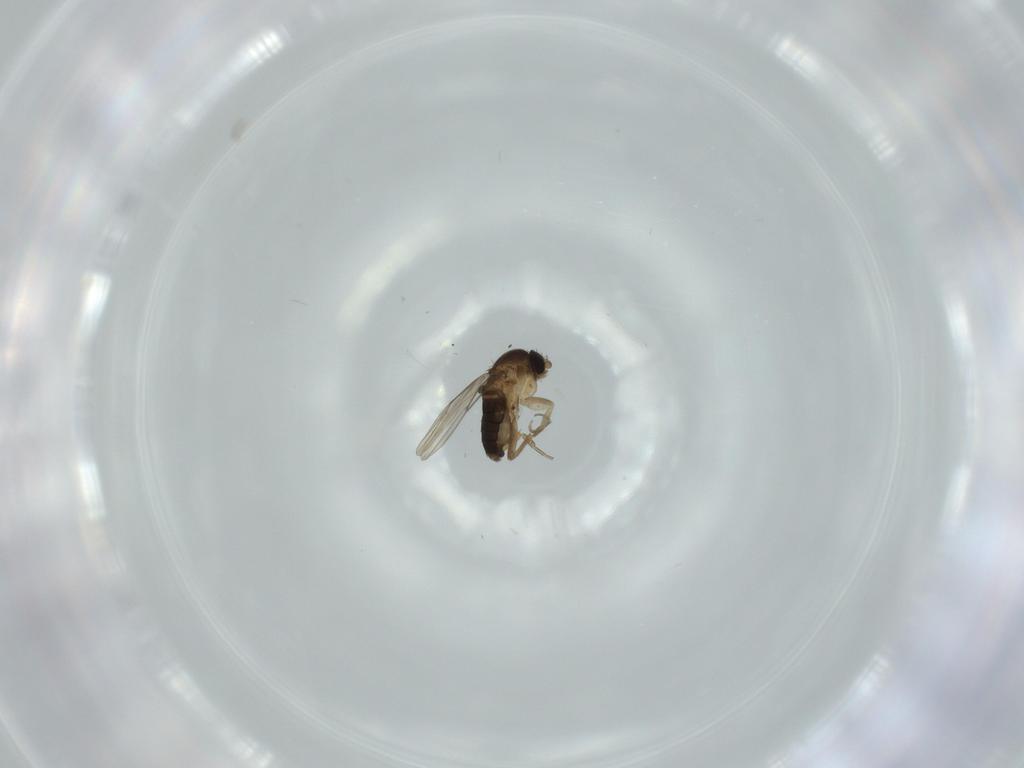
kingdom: Animalia
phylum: Arthropoda
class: Insecta
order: Diptera
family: Phoridae
